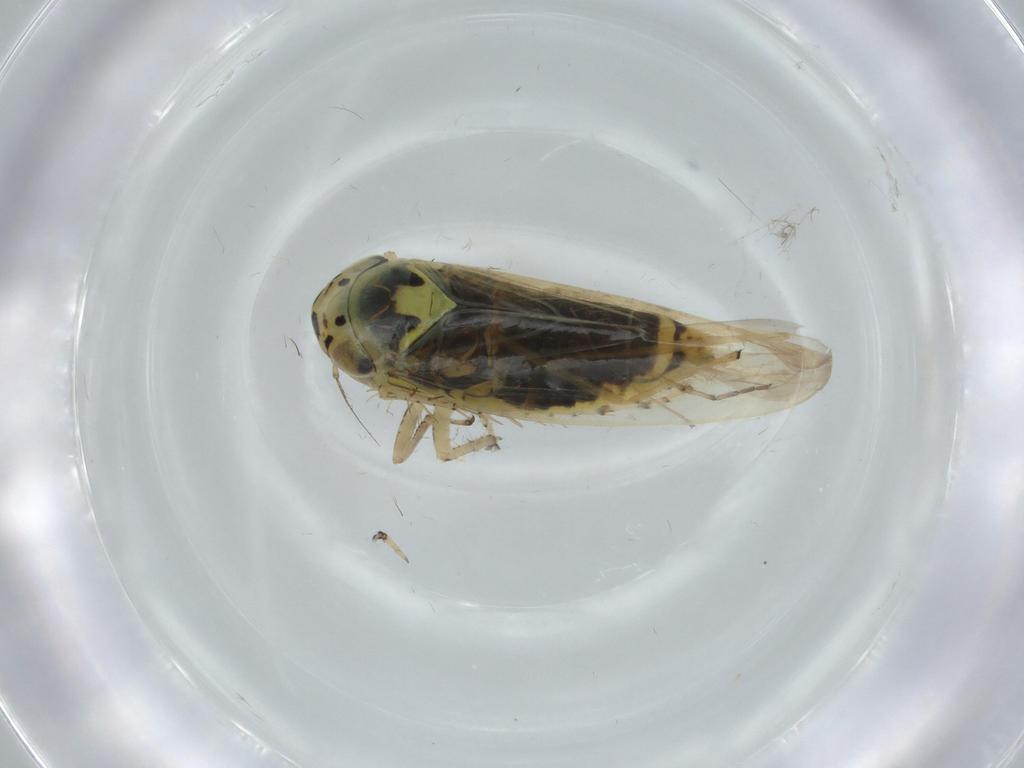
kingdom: Animalia
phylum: Arthropoda
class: Insecta
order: Hemiptera
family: Cicadellidae
